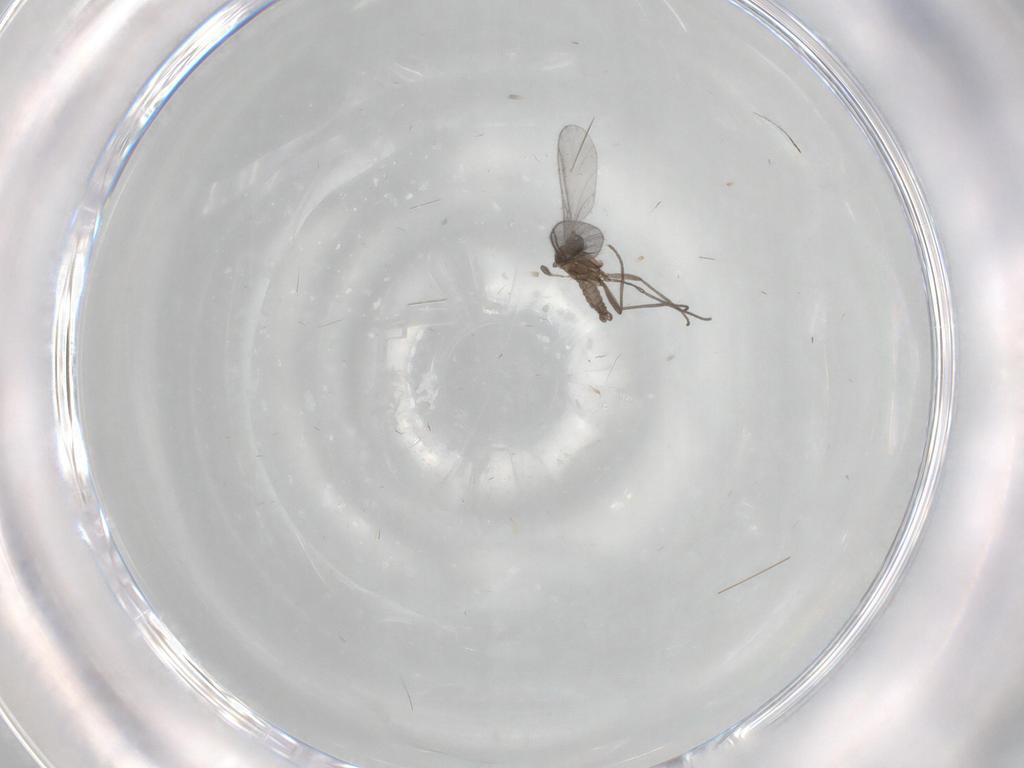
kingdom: Animalia
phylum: Arthropoda
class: Insecta
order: Diptera
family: Sciaridae
